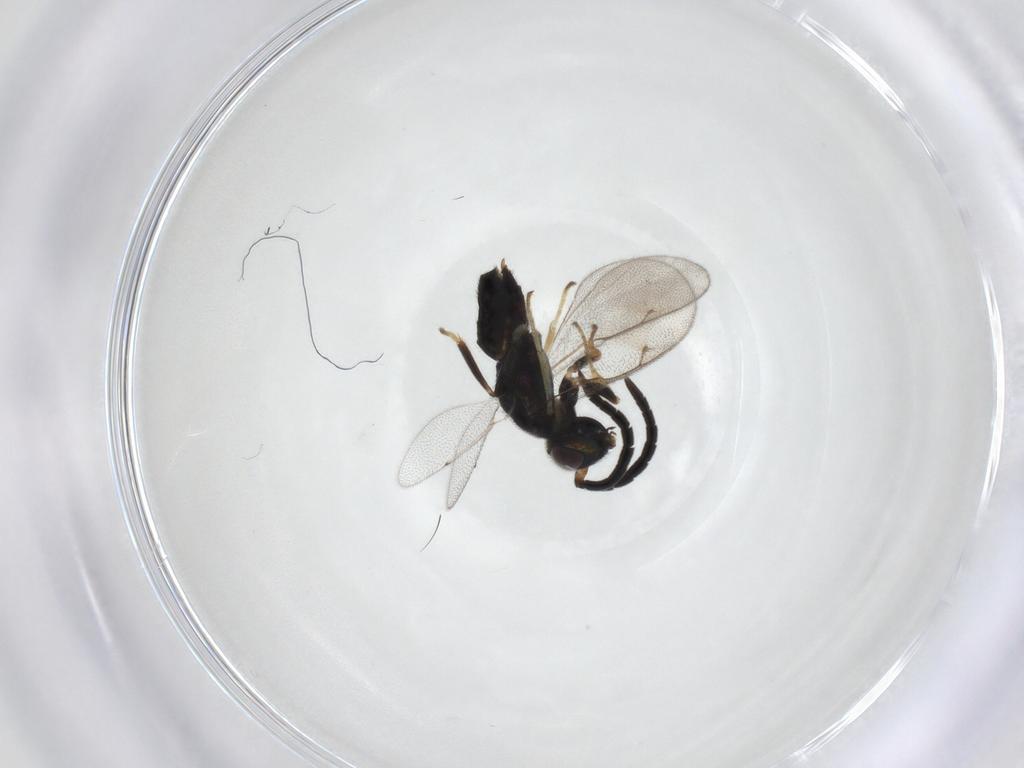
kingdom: Animalia
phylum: Arthropoda
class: Insecta
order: Hymenoptera
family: Eupelmidae
